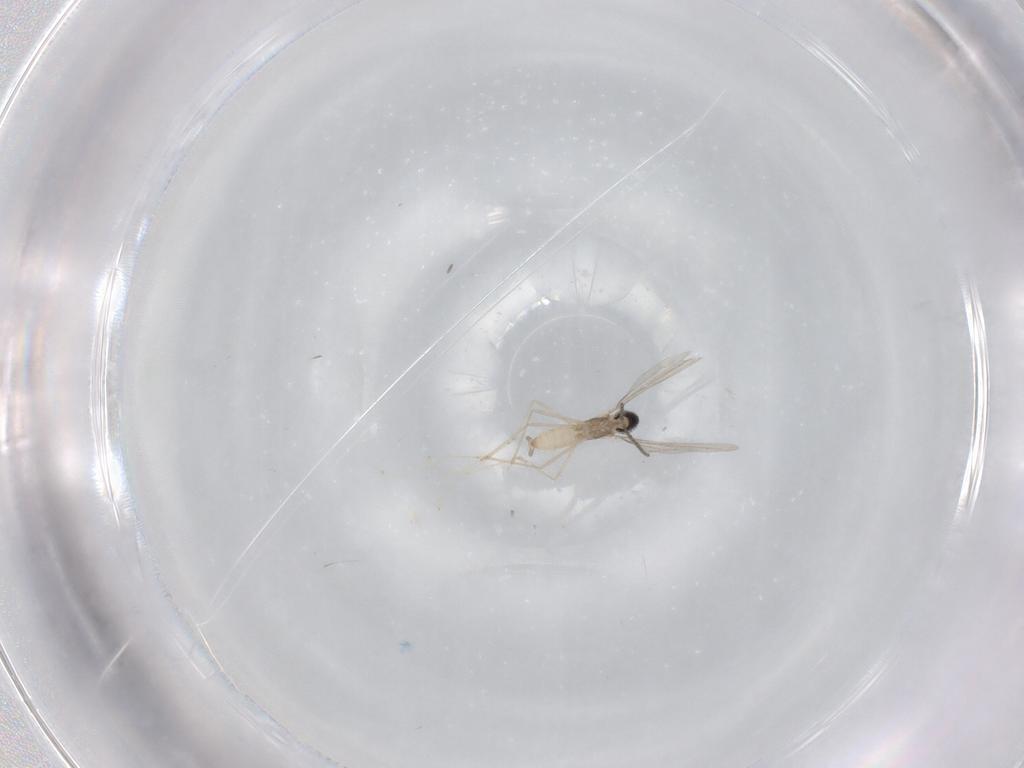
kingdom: Animalia
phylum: Arthropoda
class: Insecta
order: Diptera
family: Cecidomyiidae
